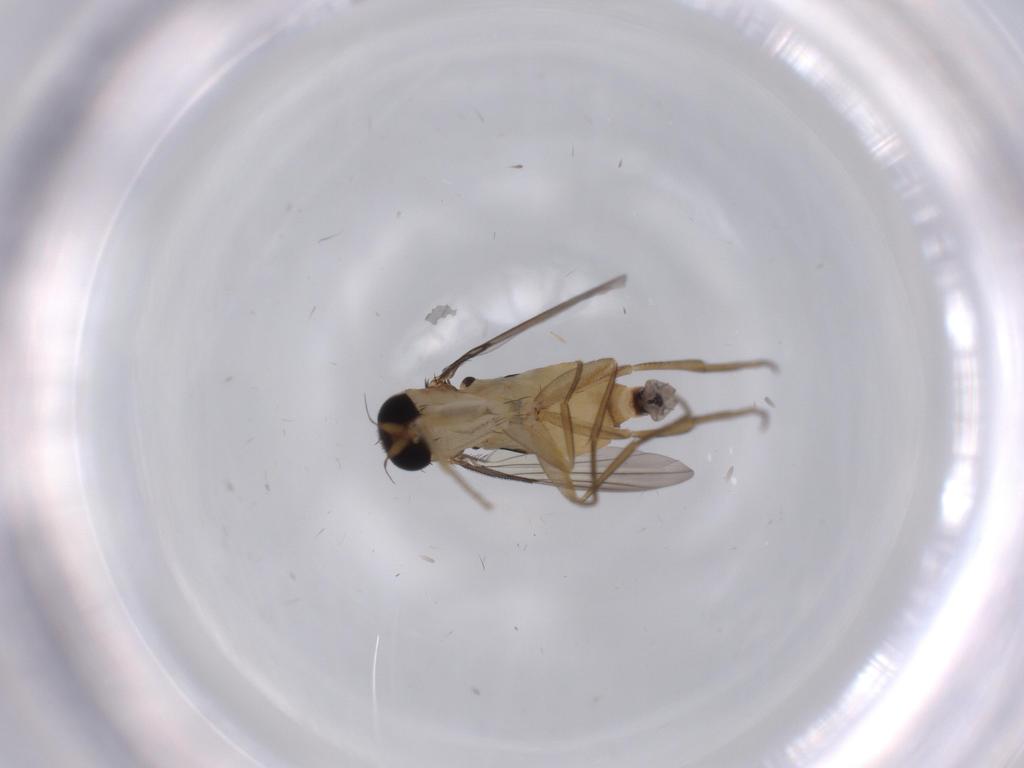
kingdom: Animalia
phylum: Arthropoda
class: Insecta
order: Diptera
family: Phoridae
